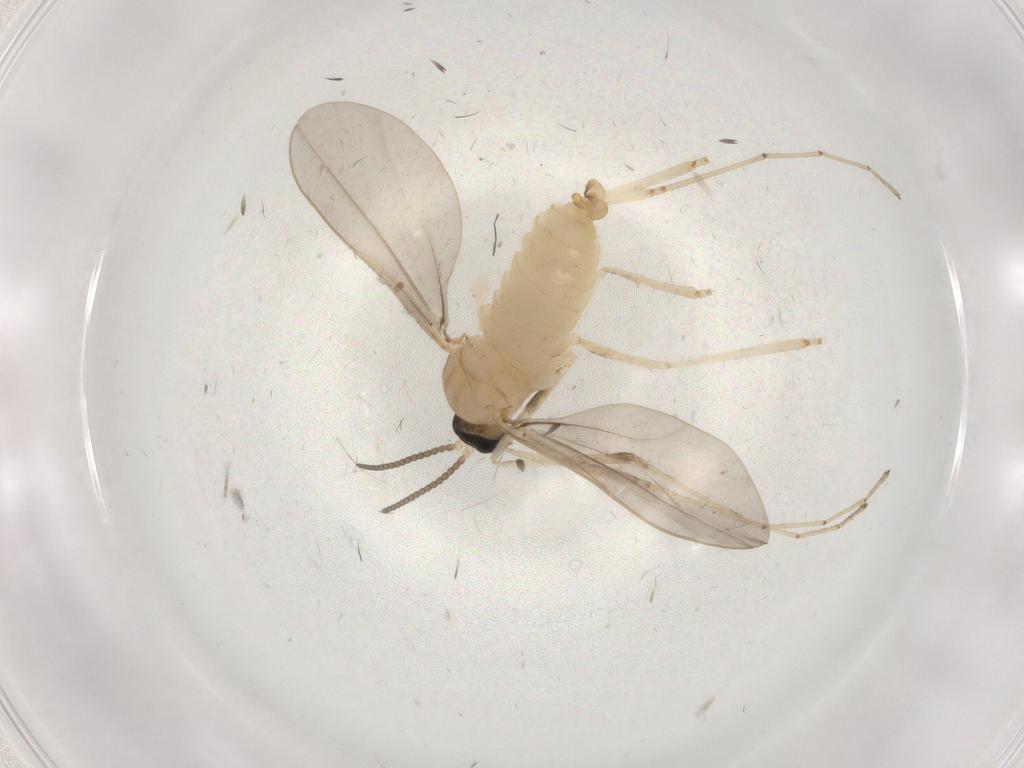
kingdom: Animalia
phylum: Arthropoda
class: Insecta
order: Diptera
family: Cecidomyiidae
